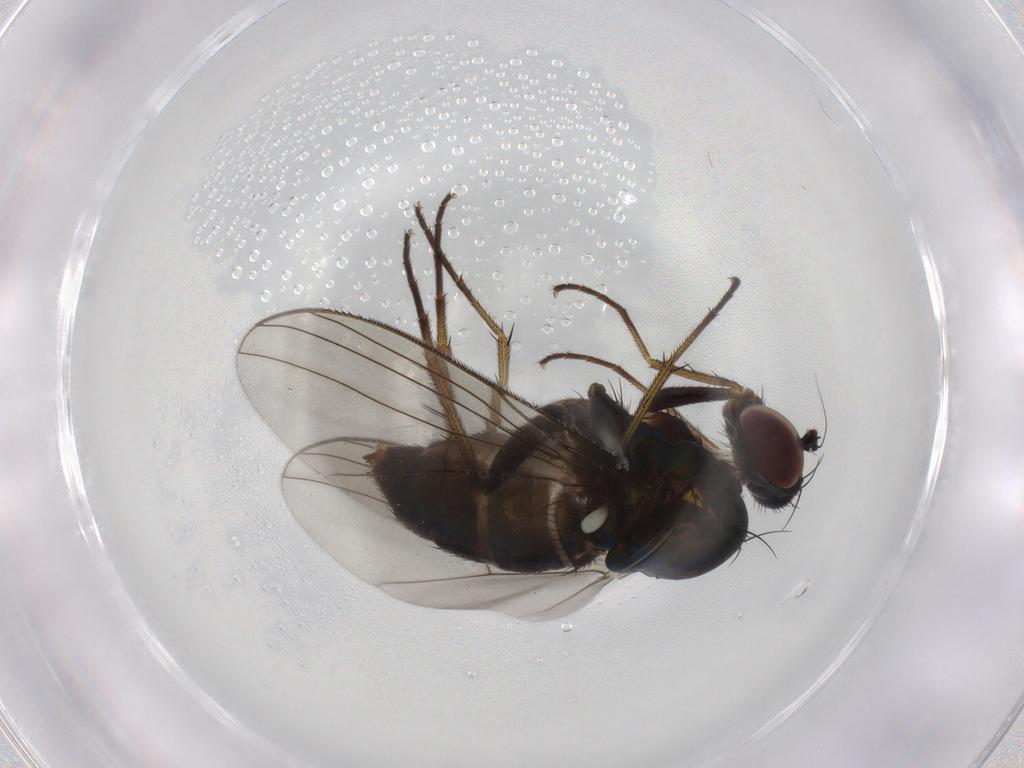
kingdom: Animalia
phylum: Arthropoda
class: Insecta
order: Diptera
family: Dolichopodidae
